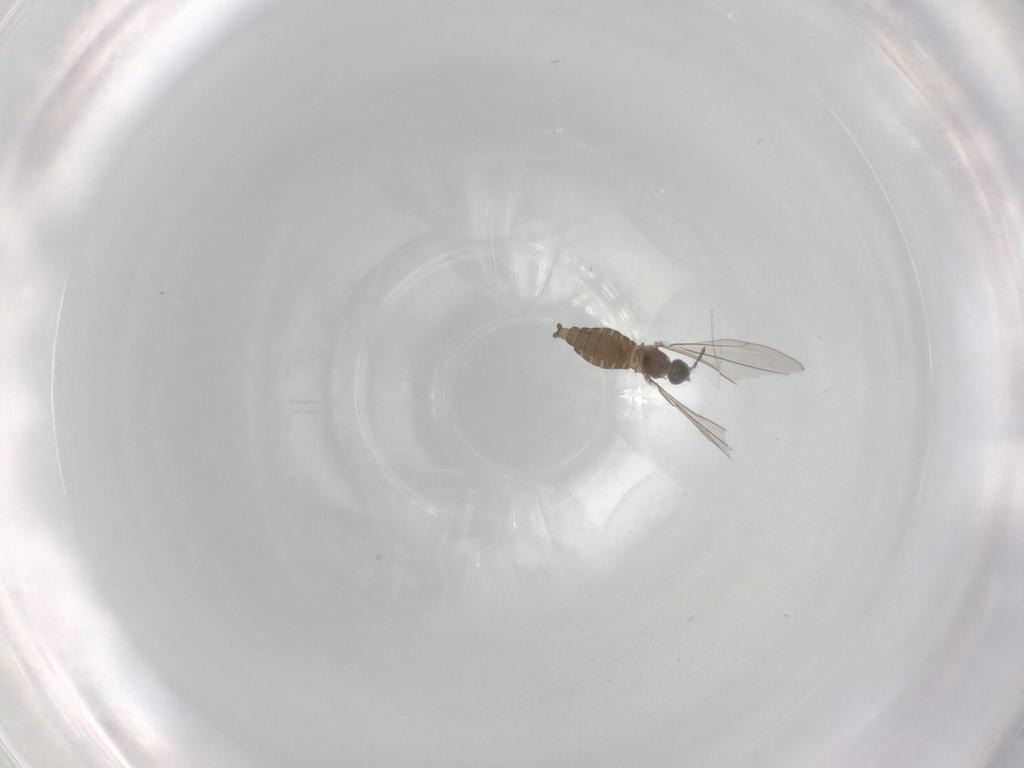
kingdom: Animalia
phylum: Arthropoda
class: Insecta
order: Diptera
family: Cecidomyiidae
